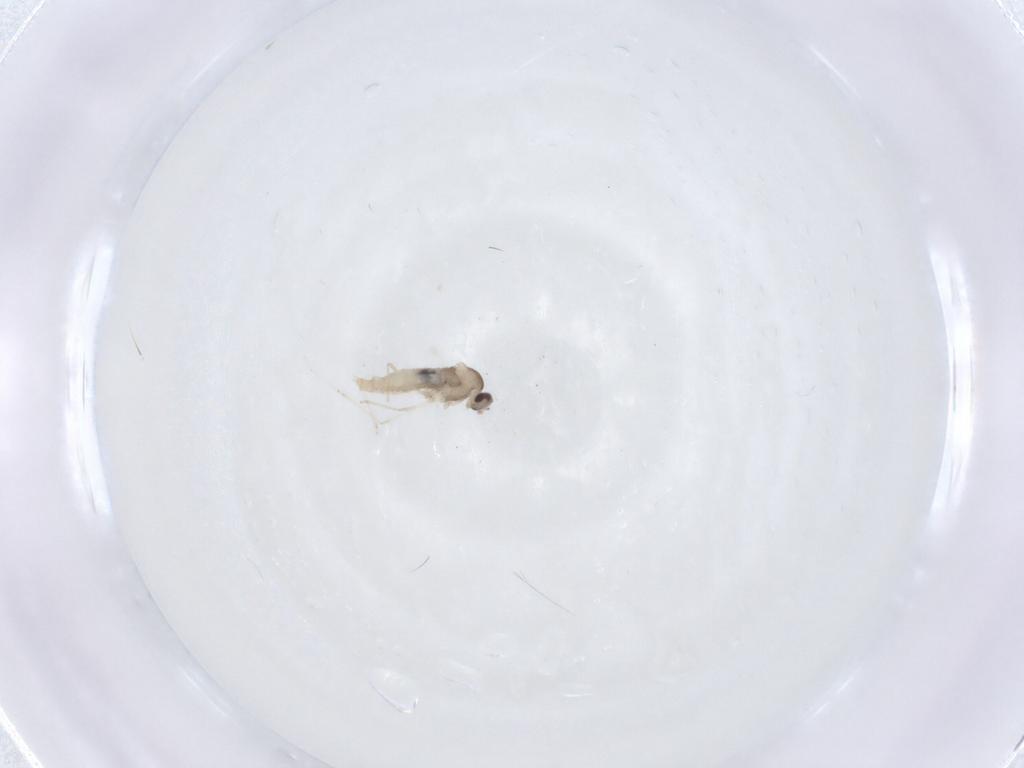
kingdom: Animalia
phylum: Arthropoda
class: Insecta
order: Diptera
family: Cecidomyiidae
